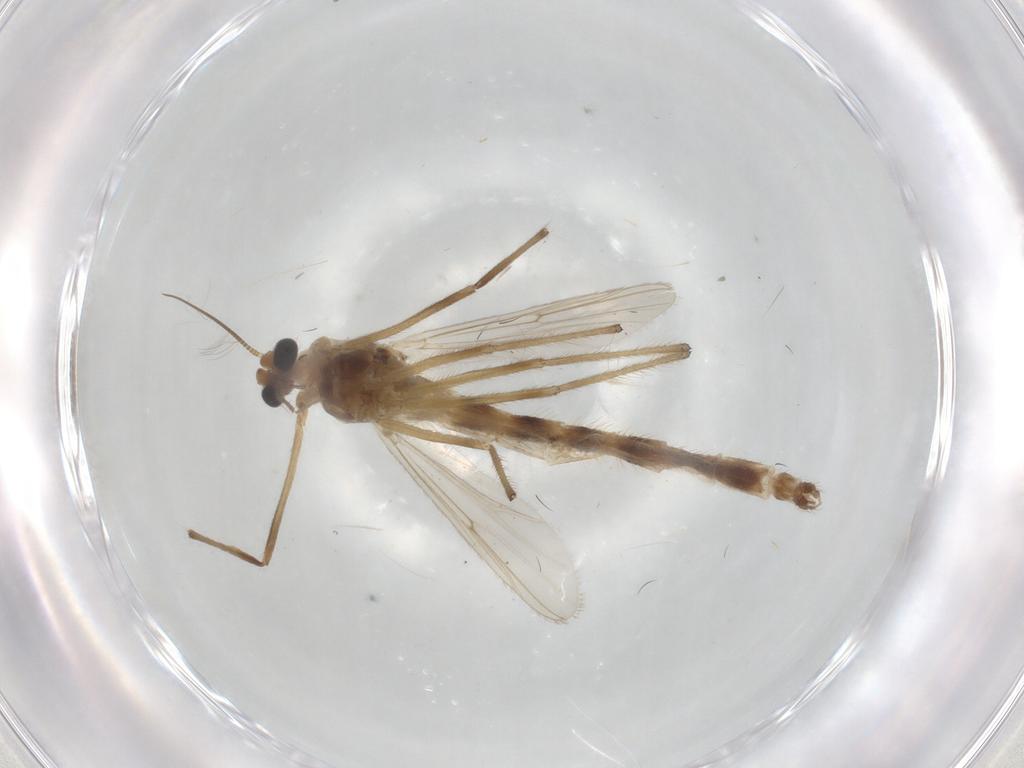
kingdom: Animalia
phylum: Arthropoda
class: Insecta
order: Diptera
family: Chironomidae
